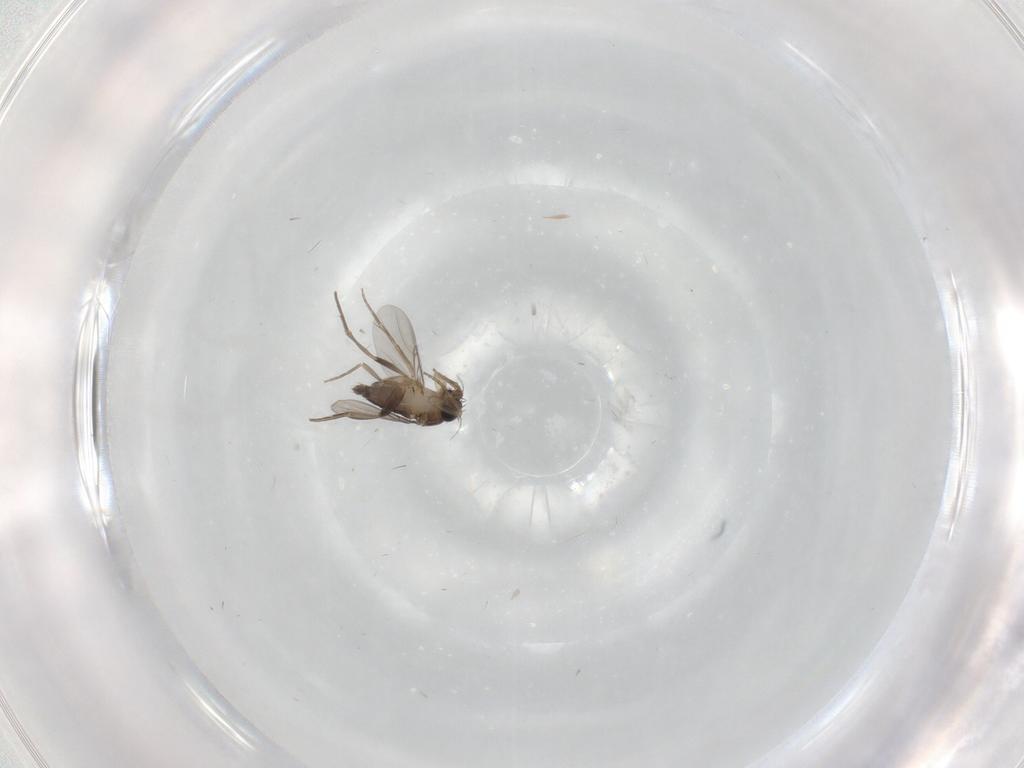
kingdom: Animalia
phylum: Arthropoda
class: Insecta
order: Diptera
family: Phoridae
